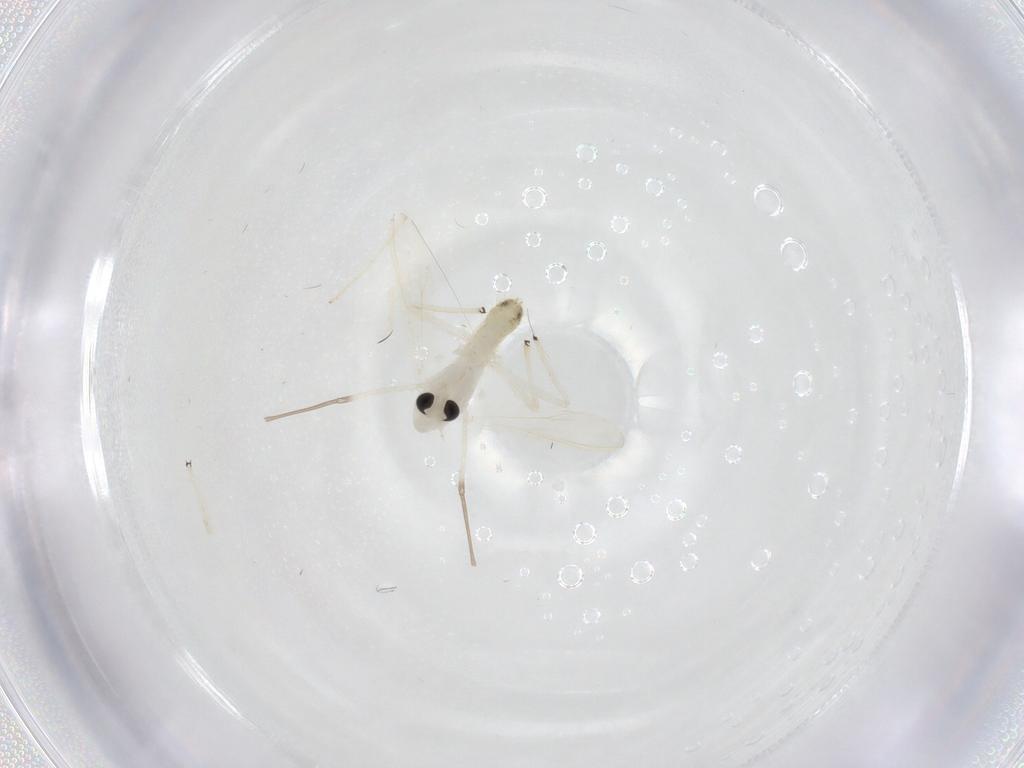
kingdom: Animalia
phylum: Arthropoda
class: Insecta
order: Diptera
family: Chironomidae
